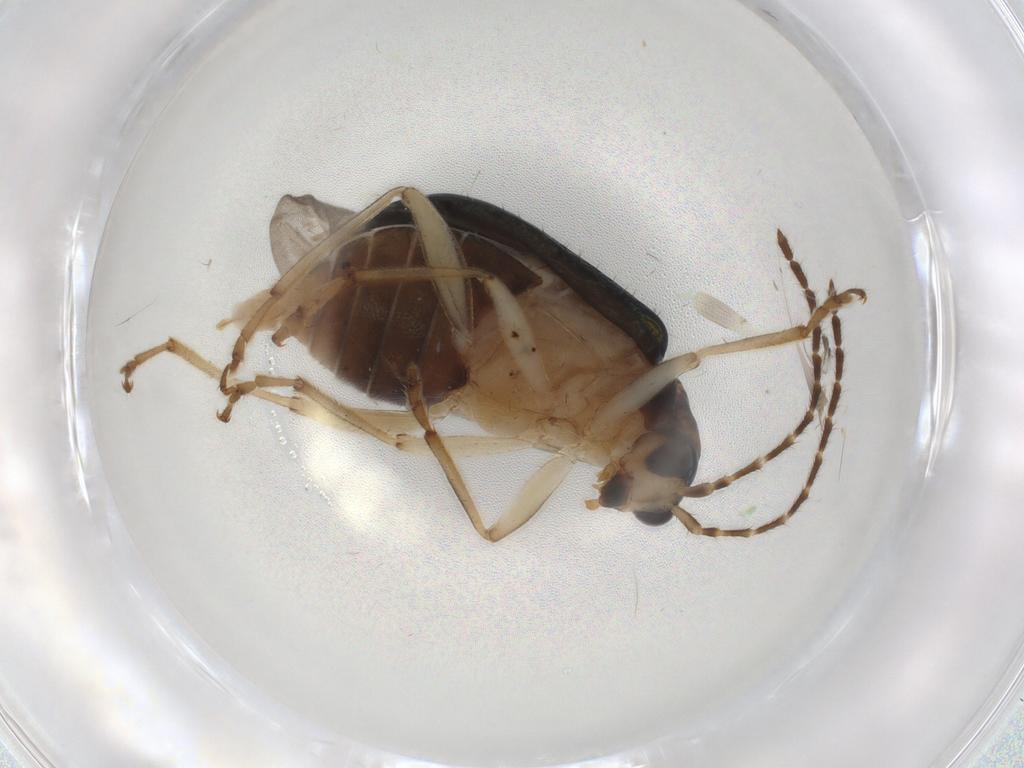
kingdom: Animalia
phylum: Arthropoda
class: Insecta
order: Coleoptera
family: Chrysomelidae
